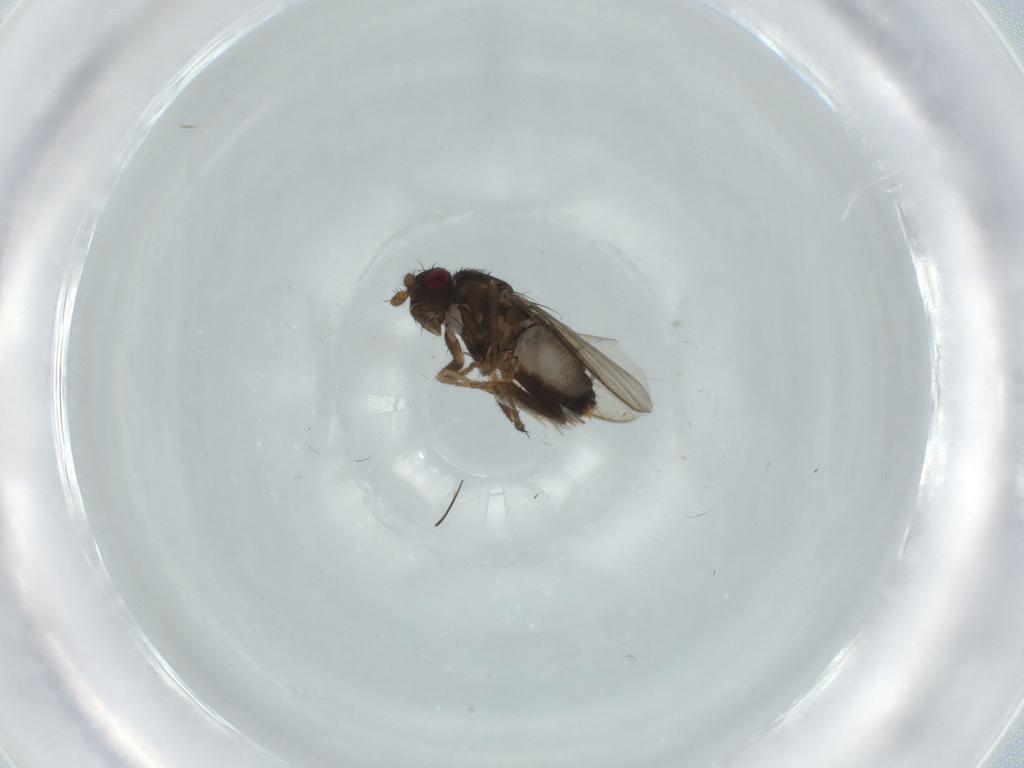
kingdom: Animalia
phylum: Arthropoda
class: Insecta
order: Diptera
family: Sphaeroceridae
